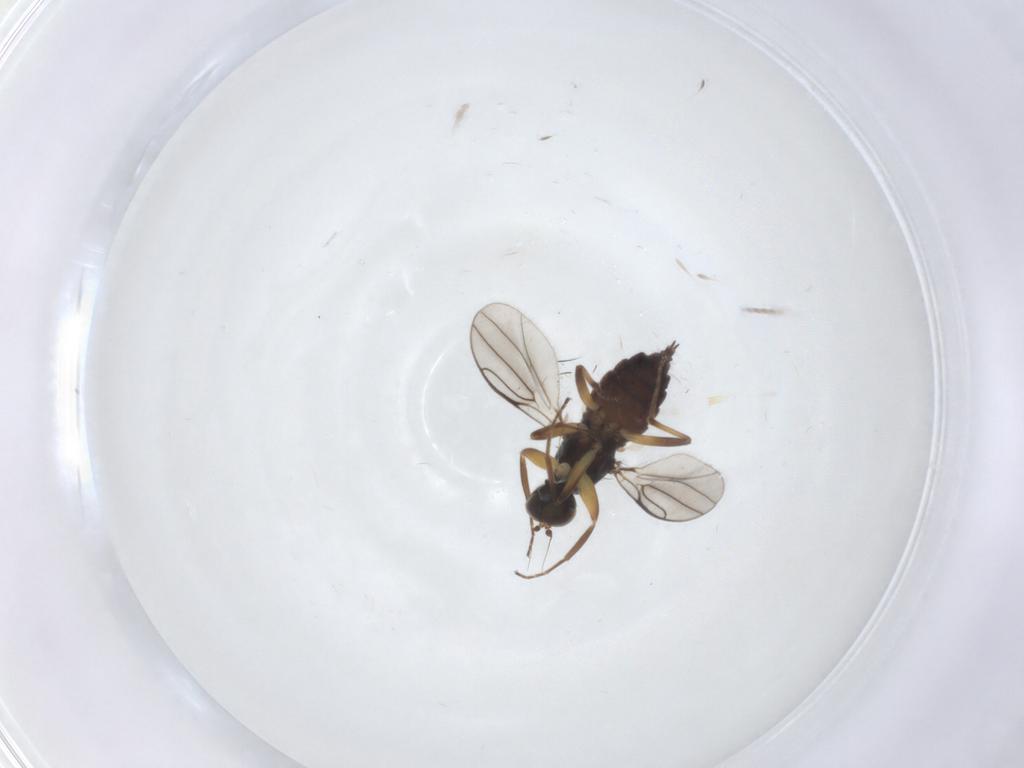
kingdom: Animalia
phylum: Arthropoda
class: Insecta
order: Diptera
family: Hybotidae
